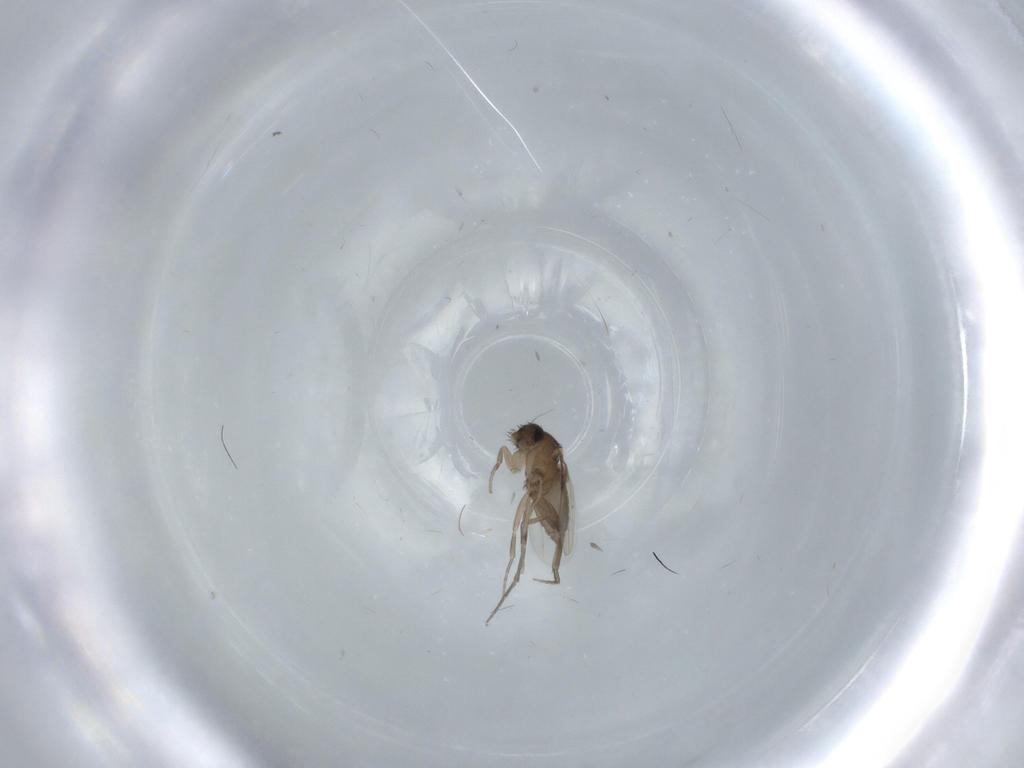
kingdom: Animalia
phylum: Arthropoda
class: Insecta
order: Diptera
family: Phoridae
